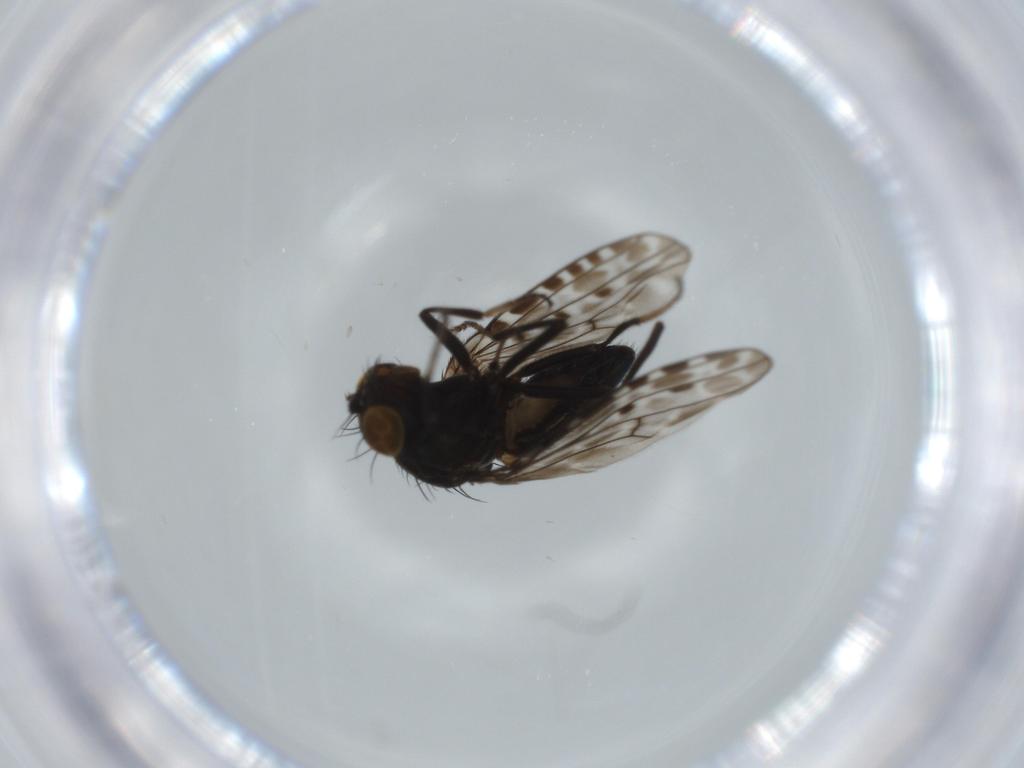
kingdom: Animalia
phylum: Arthropoda
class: Insecta
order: Diptera
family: Ephydridae
